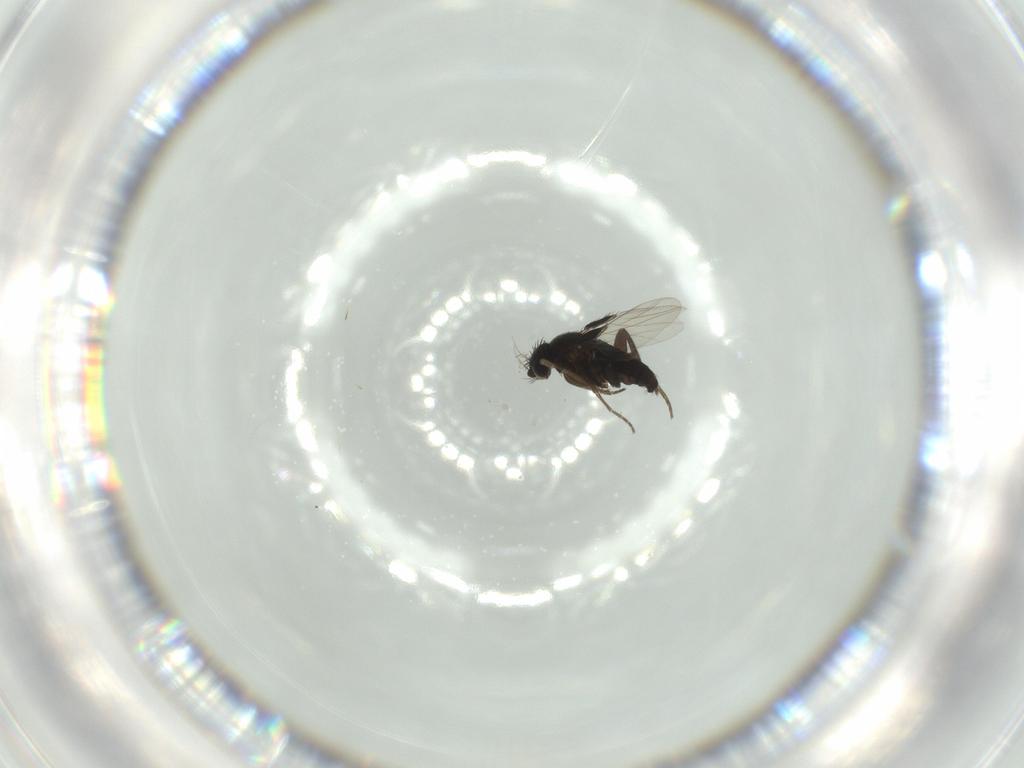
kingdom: Animalia
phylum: Arthropoda
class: Insecta
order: Diptera
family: Phoridae
